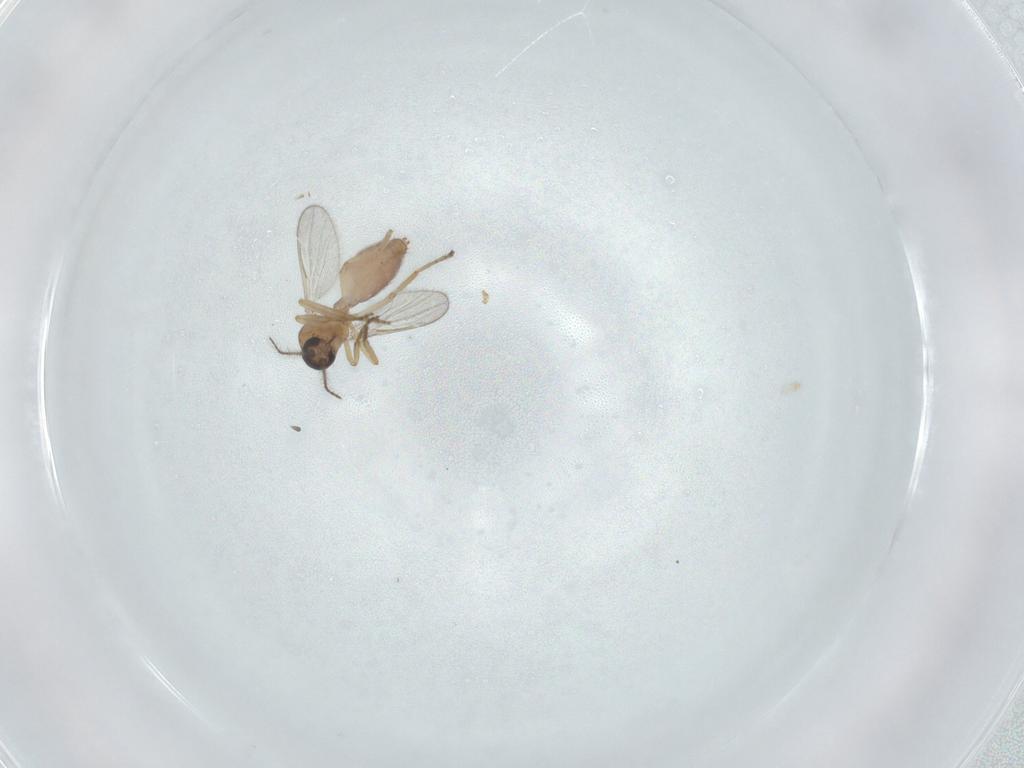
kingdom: Animalia
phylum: Arthropoda
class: Insecta
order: Diptera
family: Ceratopogonidae
